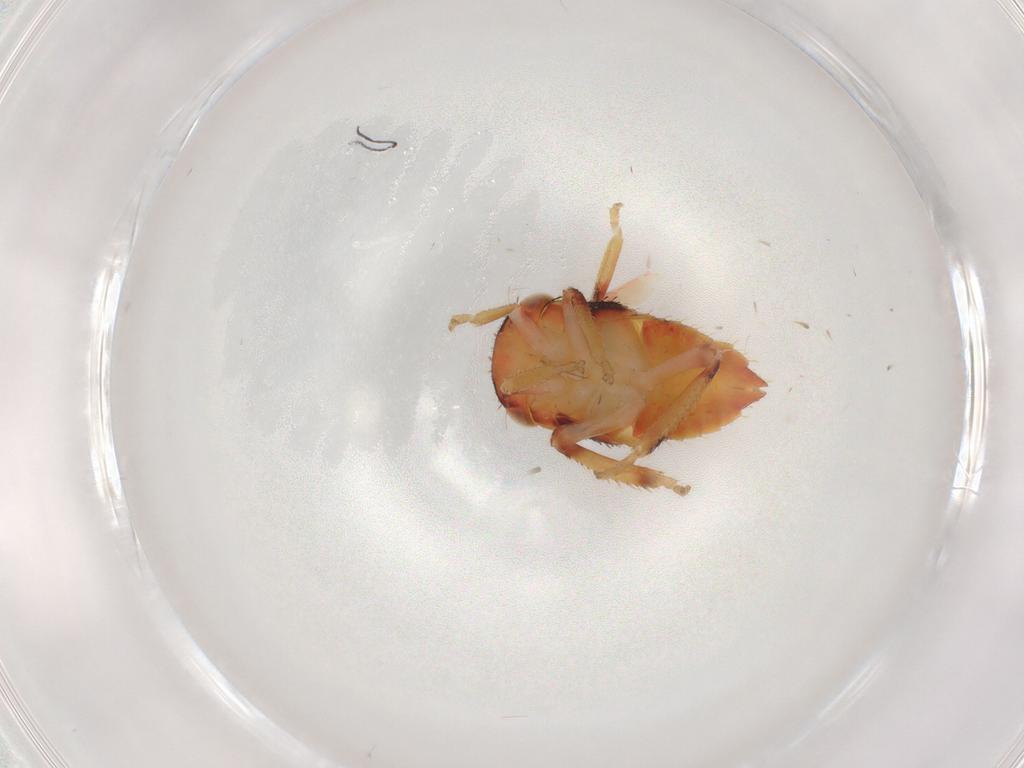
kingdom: Animalia
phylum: Arthropoda
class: Insecta
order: Hemiptera
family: Cicadellidae
